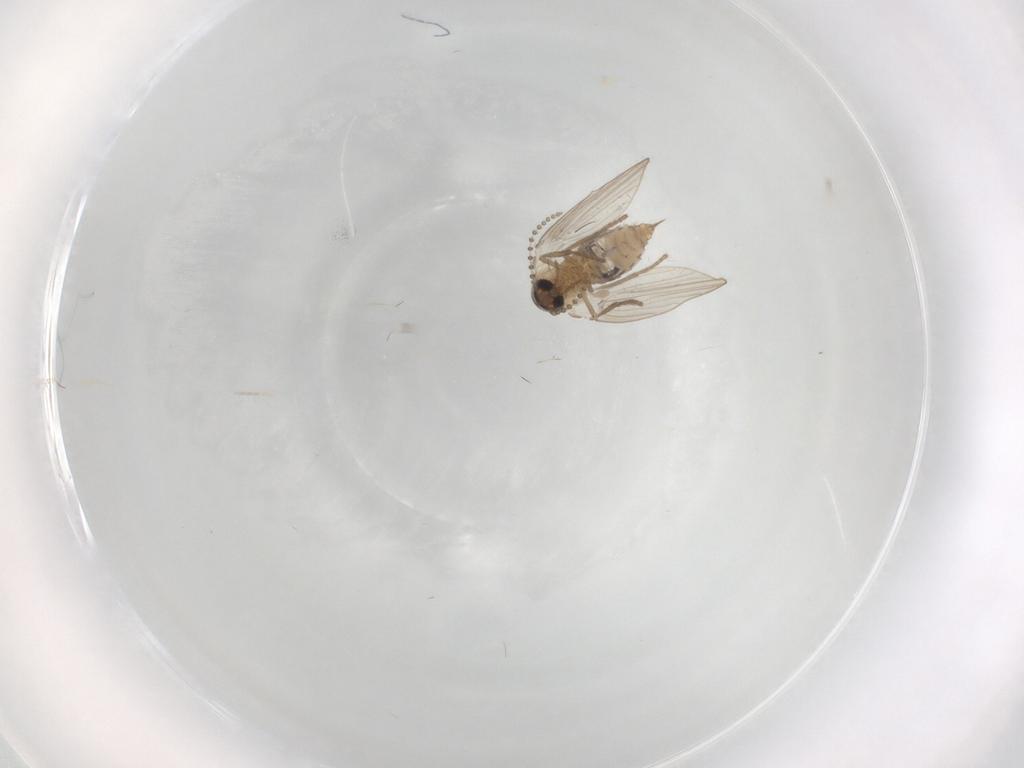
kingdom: Animalia
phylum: Arthropoda
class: Insecta
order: Diptera
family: Psychodidae
